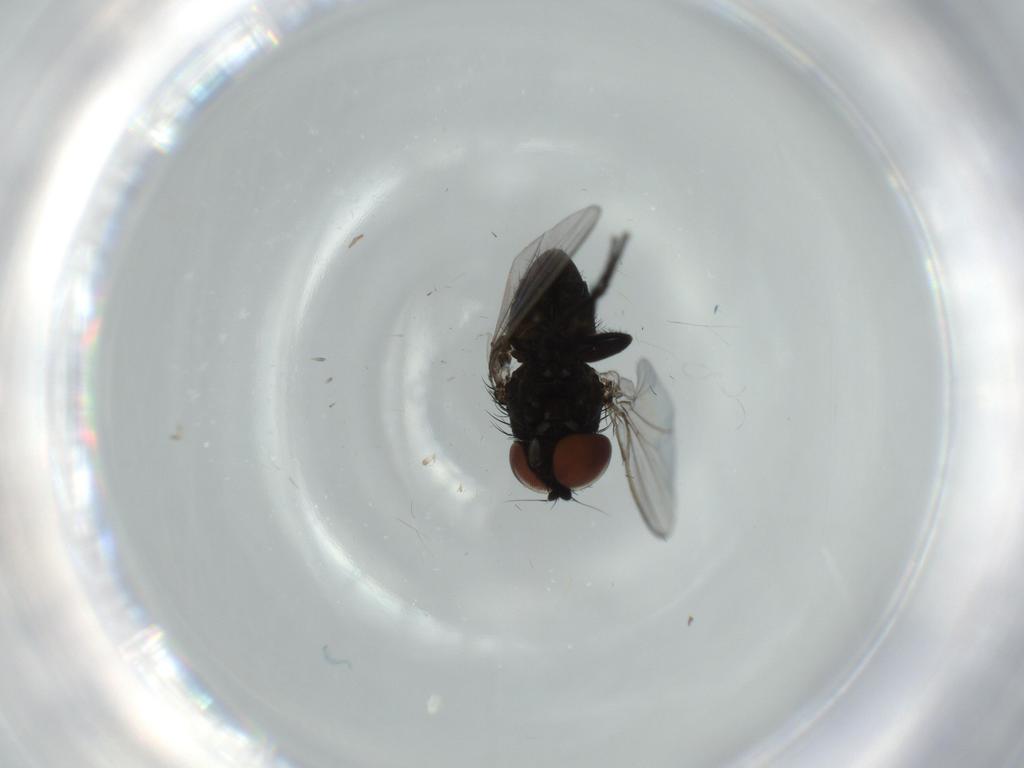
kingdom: Animalia
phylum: Arthropoda
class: Insecta
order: Diptera
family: Milichiidae
